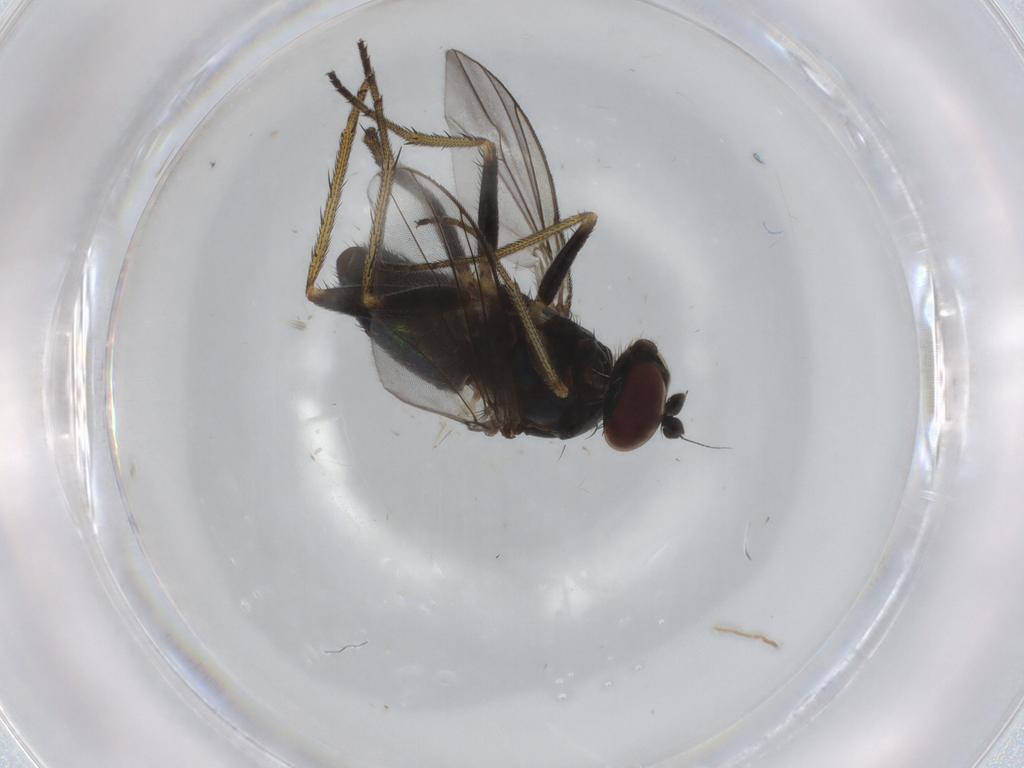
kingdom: Animalia
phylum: Arthropoda
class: Insecta
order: Diptera
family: Dolichopodidae
